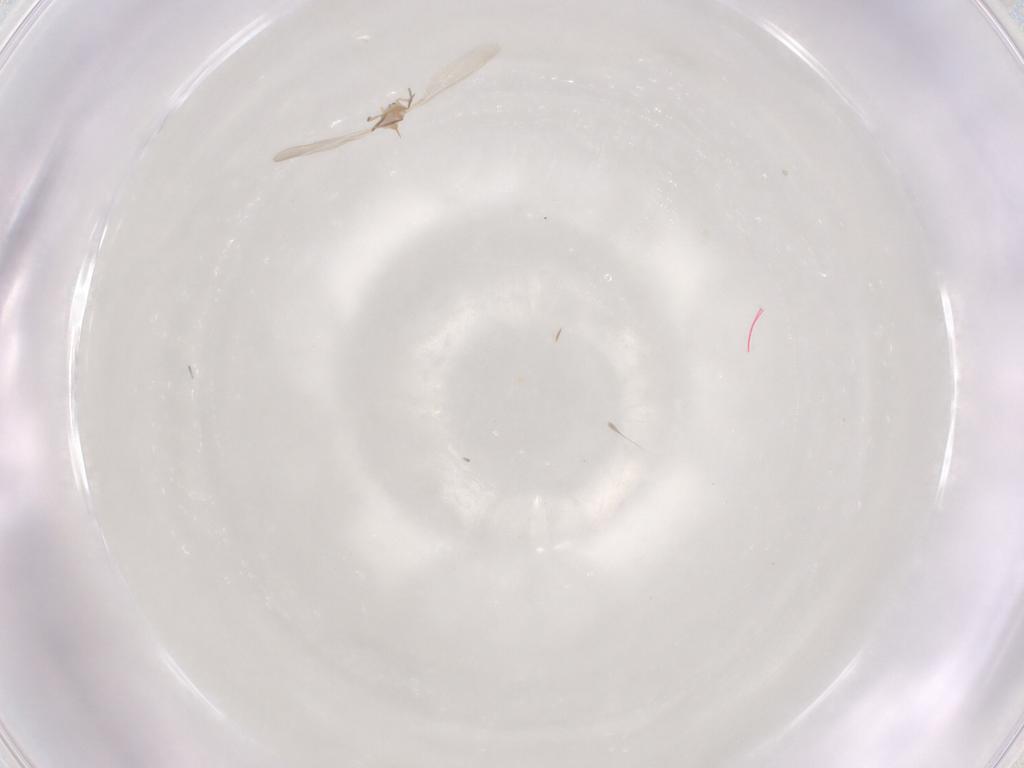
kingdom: Animalia
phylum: Arthropoda
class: Insecta
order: Diptera
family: Cecidomyiidae
